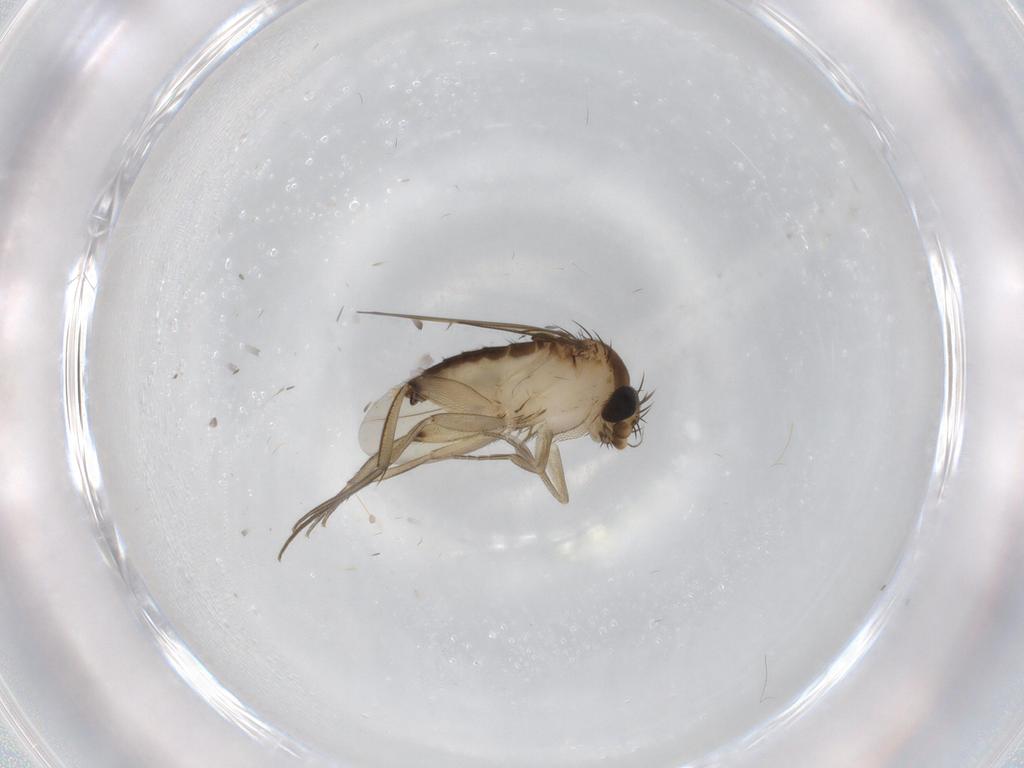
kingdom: Animalia
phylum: Arthropoda
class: Insecta
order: Diptera
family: Phoridae
